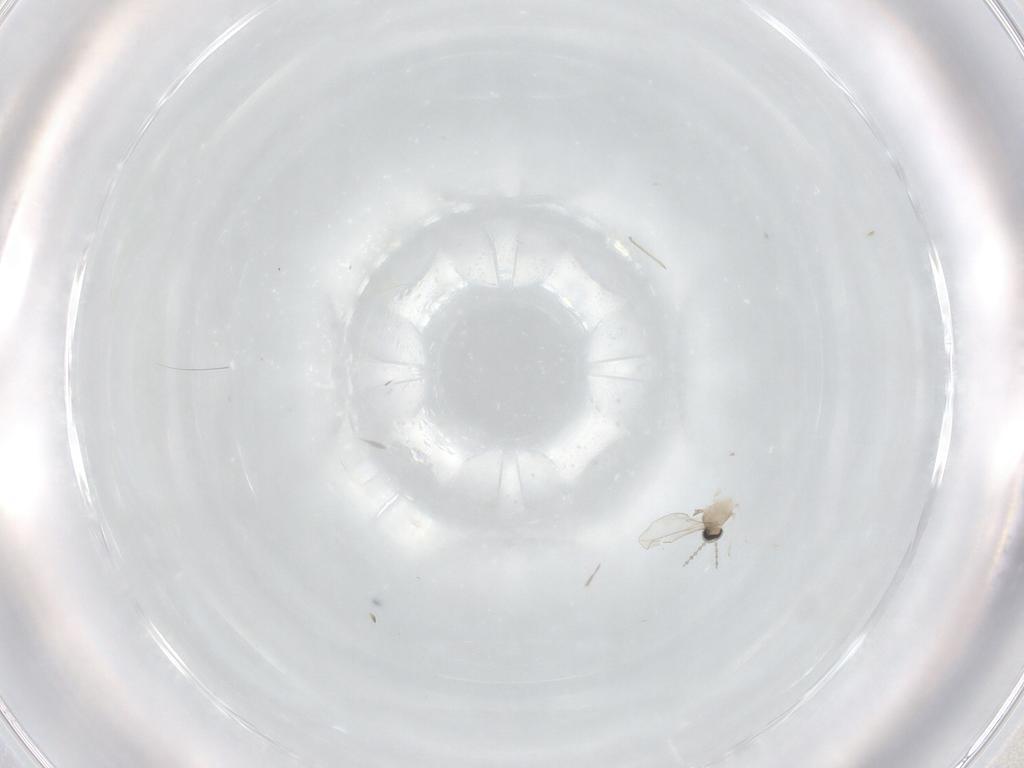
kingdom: Animalia
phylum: Arthropoda
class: Insecta
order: Diptera
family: Cecidomyiidae
